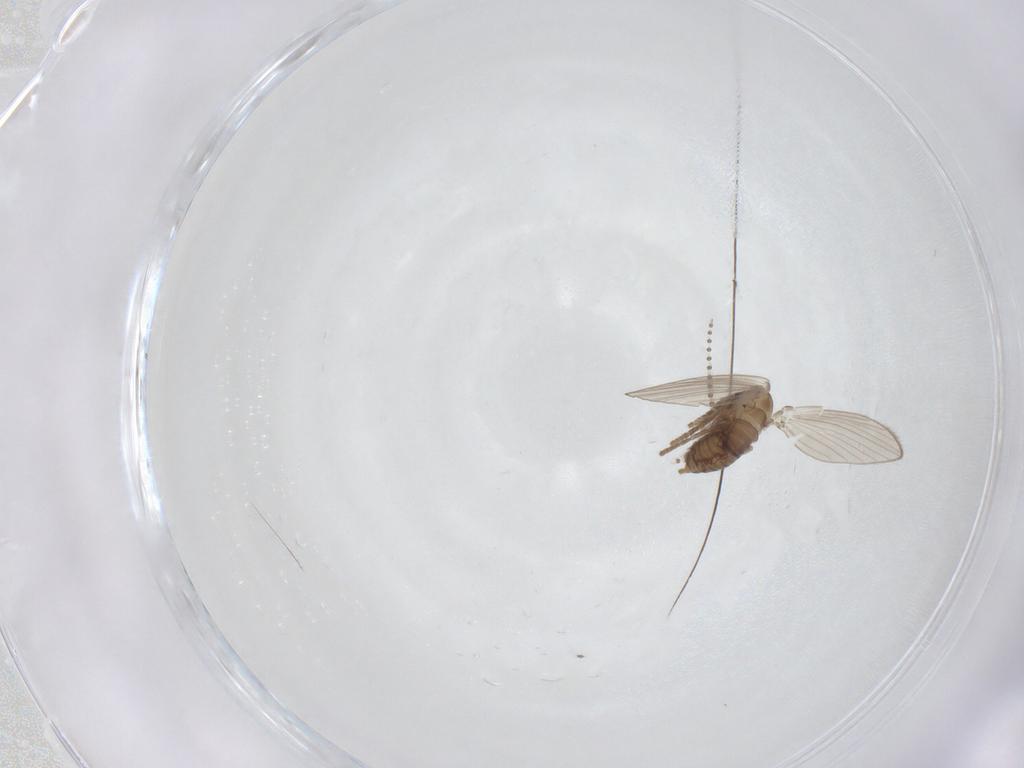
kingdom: Animalia
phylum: Arthropoda
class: Insecta
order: Diptera
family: Psychodidae
